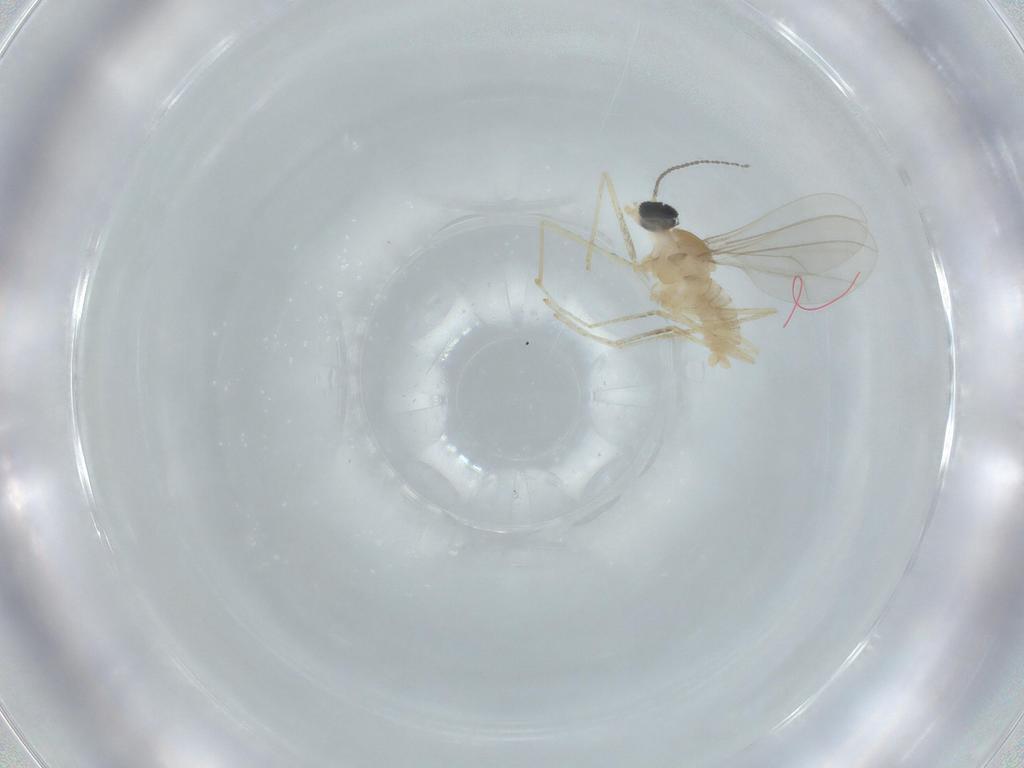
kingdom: Animalia
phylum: Arthropoda
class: Insecta
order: Diptera
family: Cecidomyiidae
